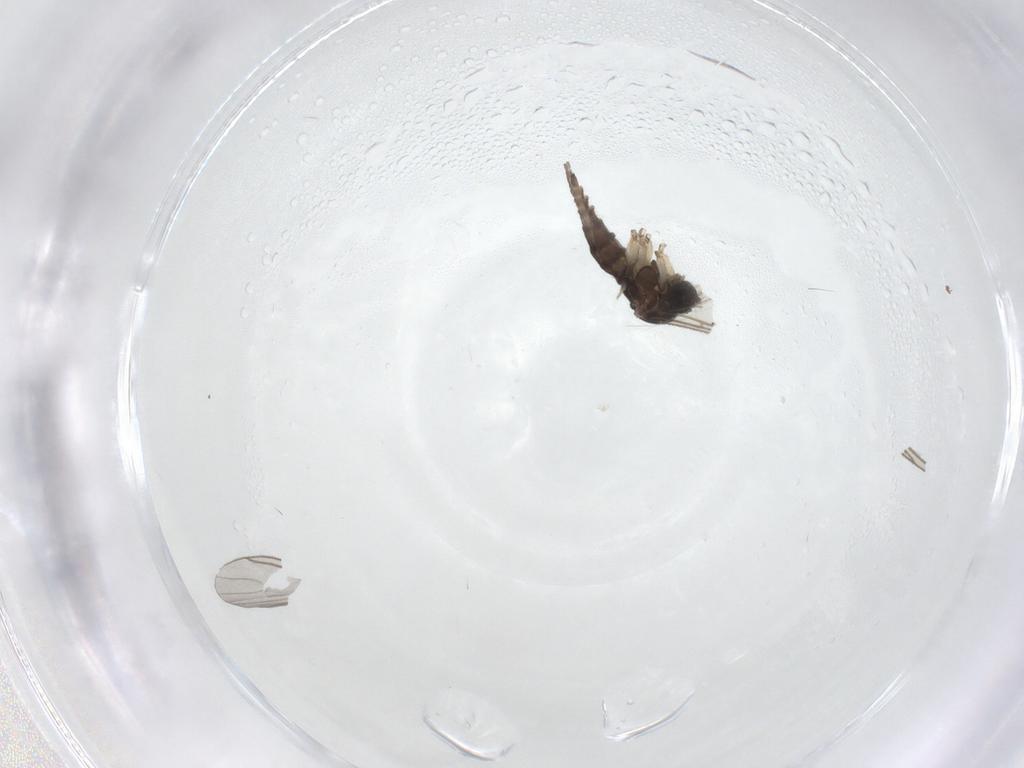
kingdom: Animalia
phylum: Arthropoda
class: Insecta
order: Diptera
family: Sciaridae
